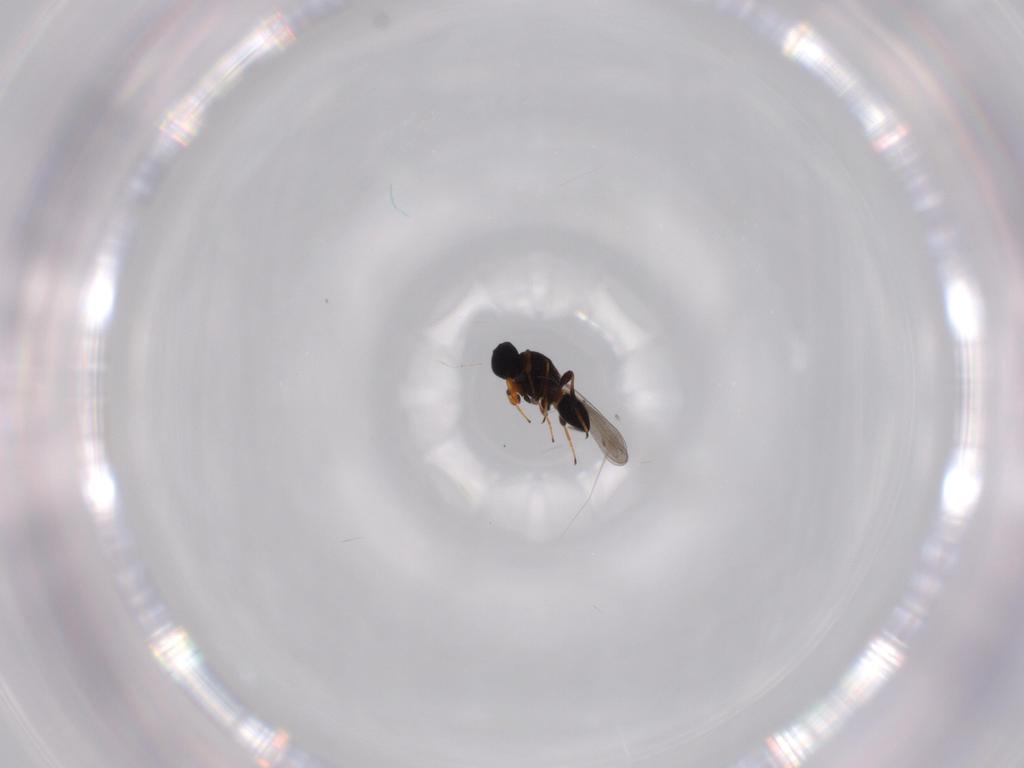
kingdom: Animalia
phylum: Arthropoda
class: Insecta
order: Hymenoptera
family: Platygastridae
